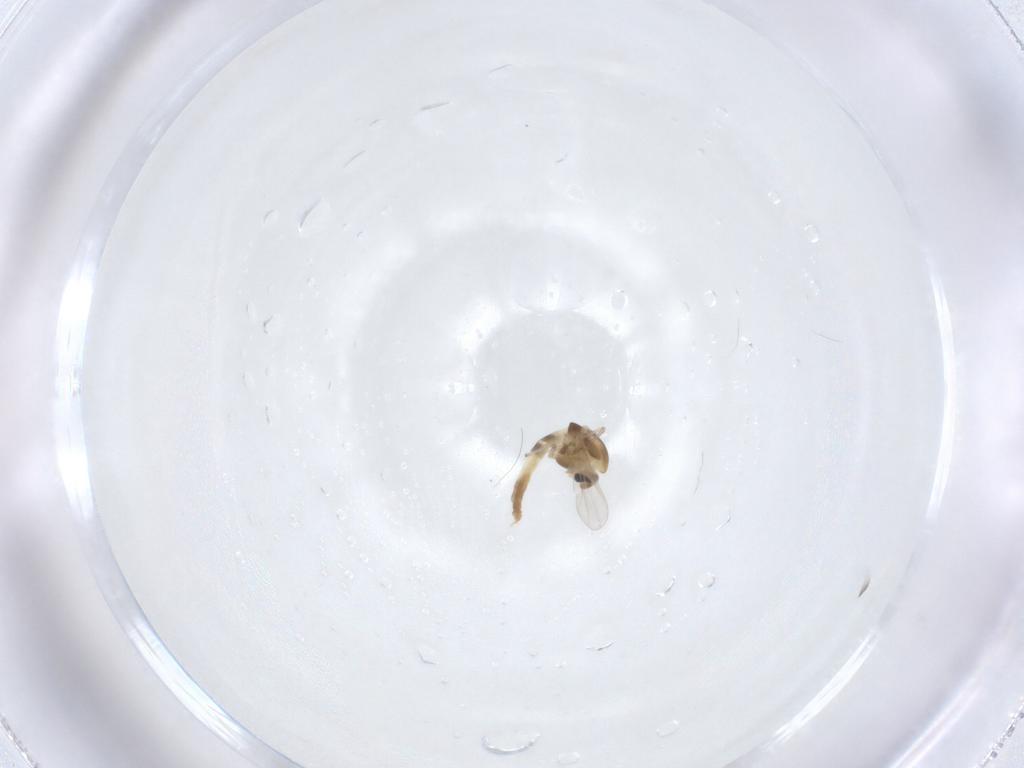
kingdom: Animalia
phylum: Arthropoda
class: Insecta
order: Diptera
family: Chironomidae
